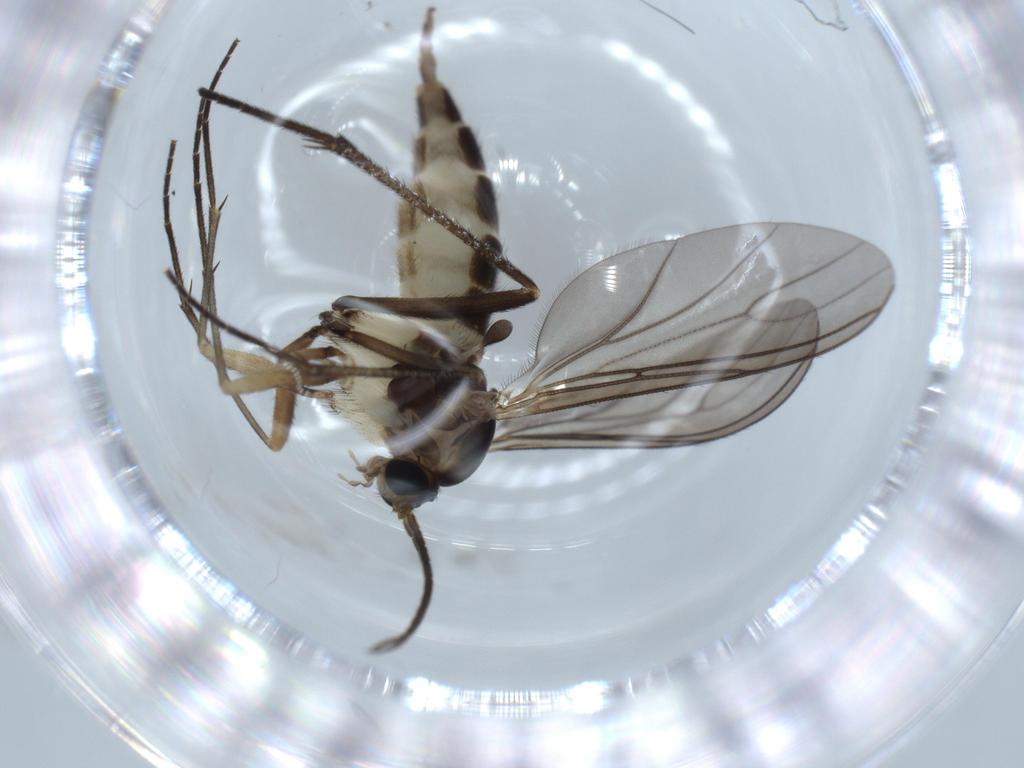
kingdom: Animalia
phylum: Arthropoda
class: Insecta
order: Diptera
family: Sciaridae
